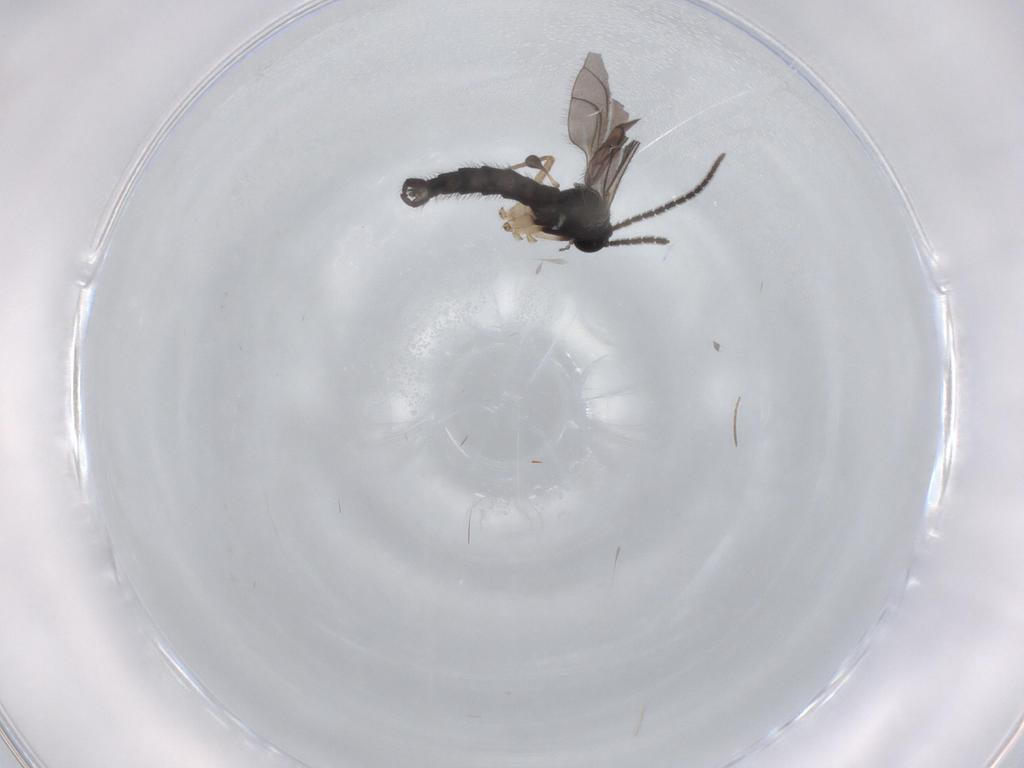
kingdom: Animalia
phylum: Arthropoda
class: Insecta
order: Diptera
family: Sciaridae
